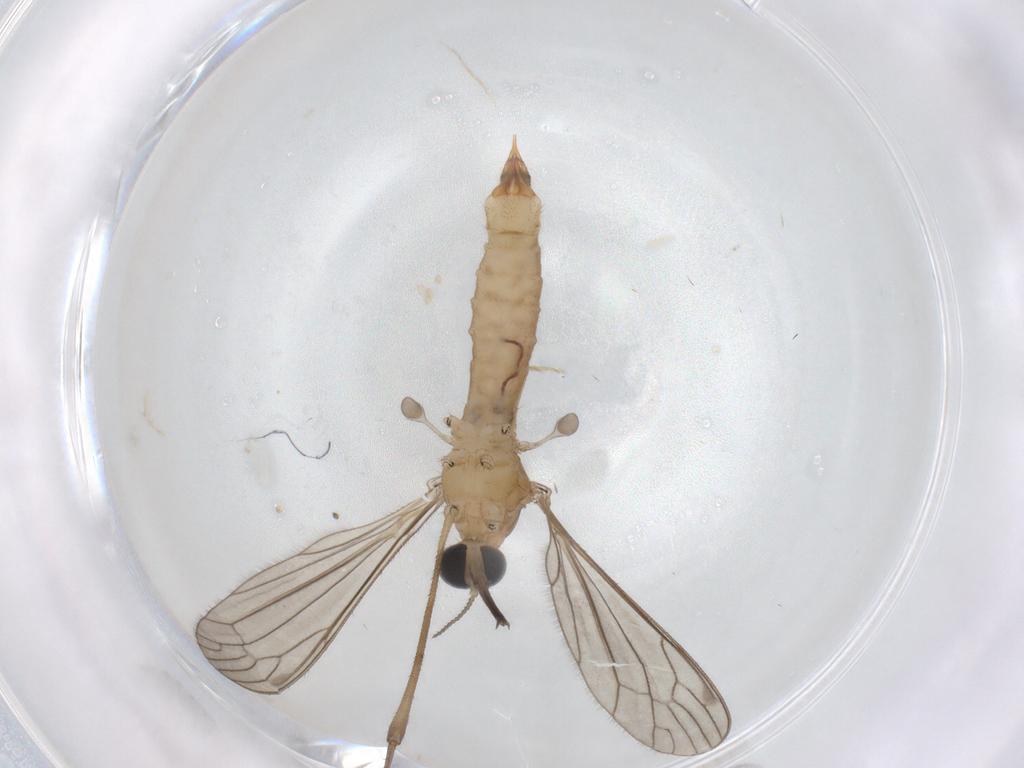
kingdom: Animalia
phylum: Arthropoda
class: Insecta
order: Diptera
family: Limoniidae
